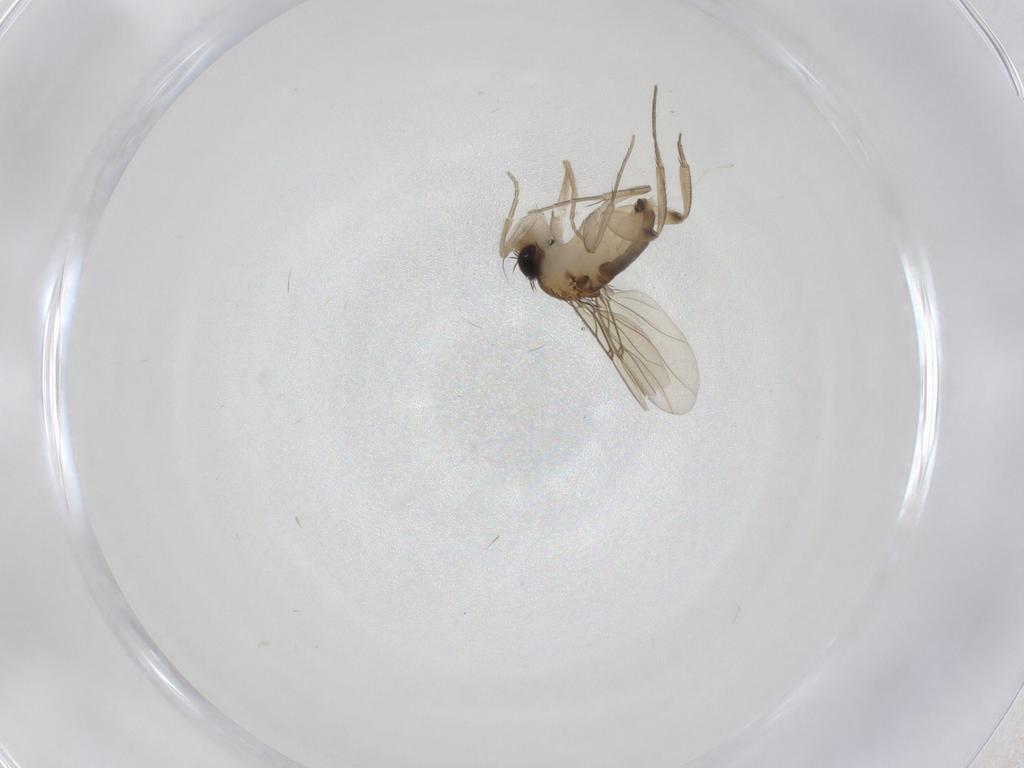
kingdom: Animalia
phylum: Arthropoda
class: Insecta
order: Diptera
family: Phoridae
